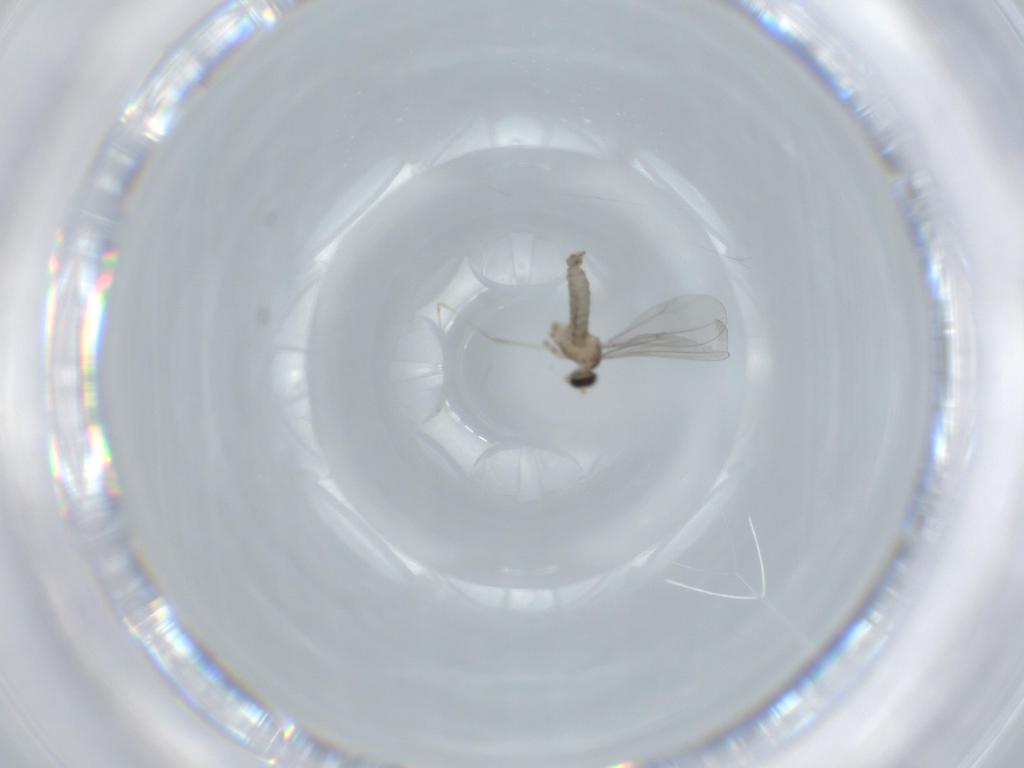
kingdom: Animalia
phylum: Arthropoda
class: Insecta
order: Diptera
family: Cecidomyiidae
